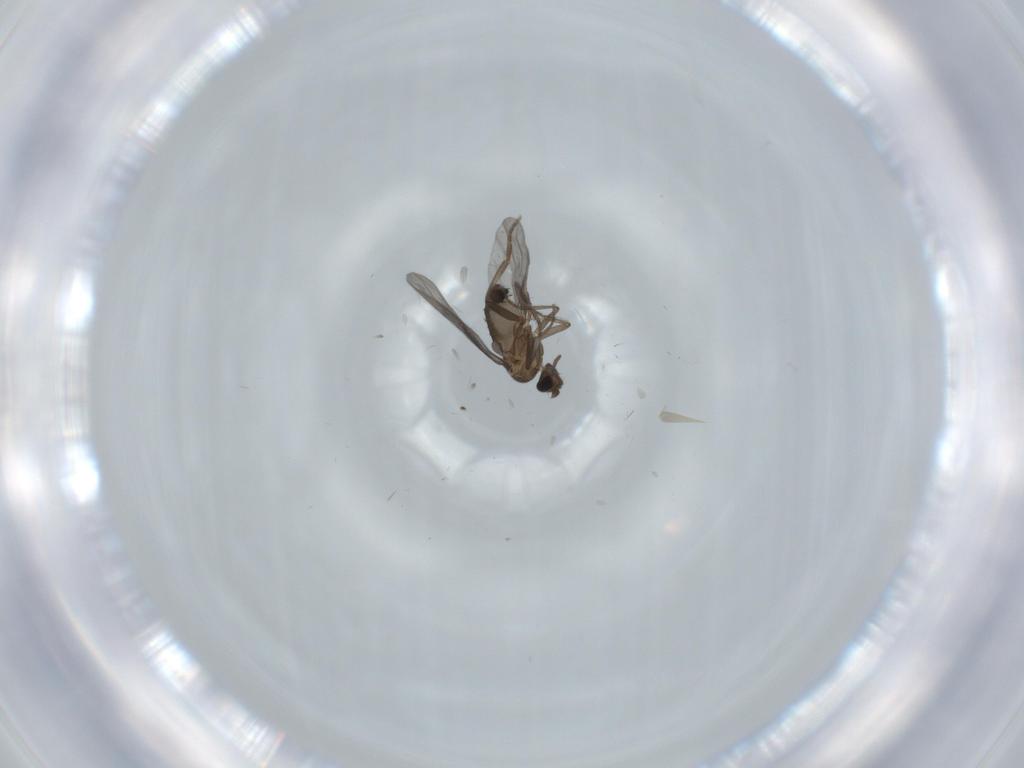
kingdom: Animalia
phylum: Arthropoda
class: Insecta
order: Diptera
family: Phoridae
